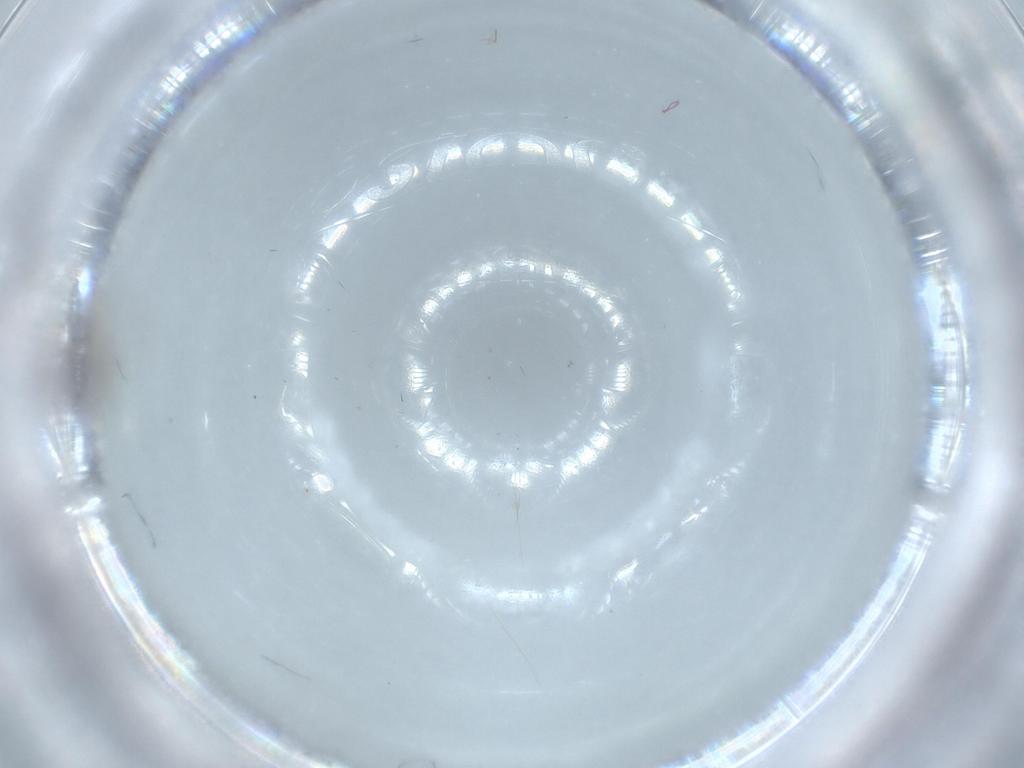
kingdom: Animalia
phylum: Arthropoda
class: Insecta
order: Diptera
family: Chironomidae
